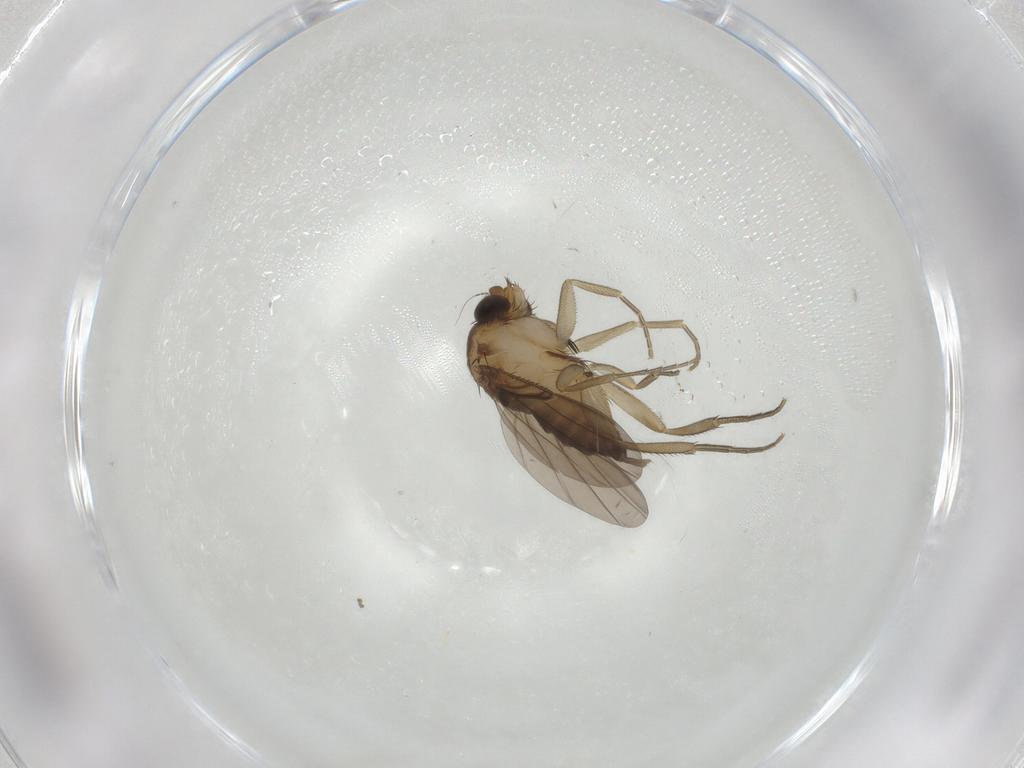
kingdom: Animalia
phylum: Arthropoda
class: Insecta
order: Diptera
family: Phoridae
